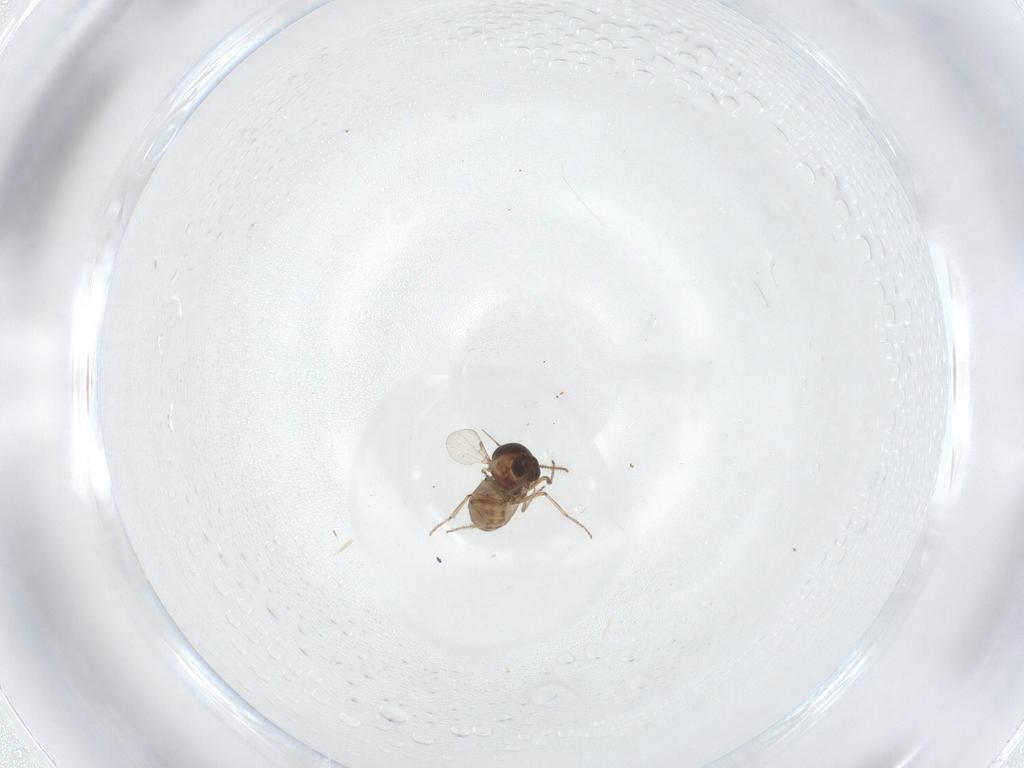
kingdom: Animalia
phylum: Arthropoda
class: Insecta
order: Diptera
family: Ceratopogonidae
